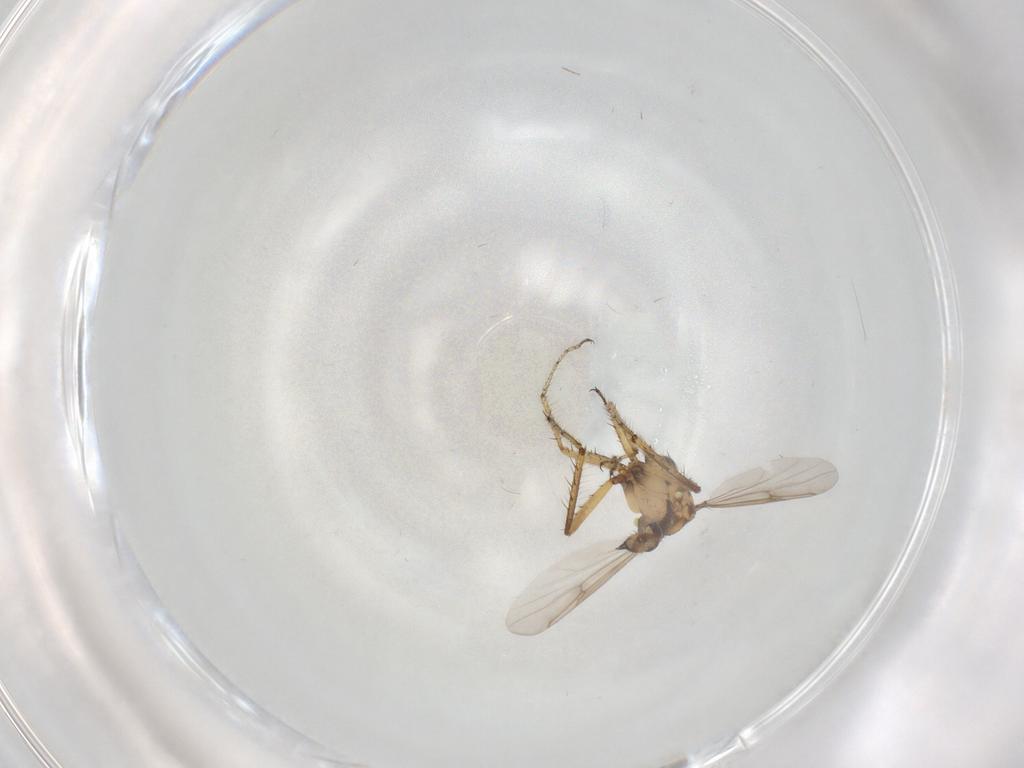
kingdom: Animalia
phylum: Arthropoda
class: Insecta
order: Diptera
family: Ceratopogonidae
